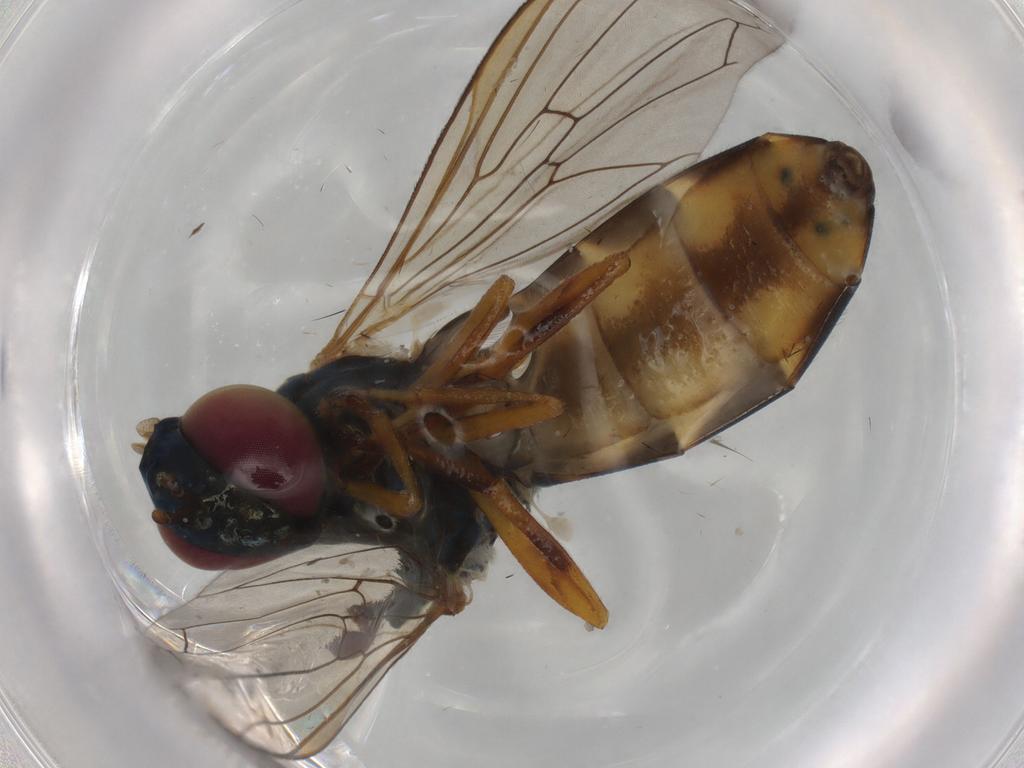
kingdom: Animalia
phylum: Arthropoda
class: Insecta
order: Diptera
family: Syrphidae
